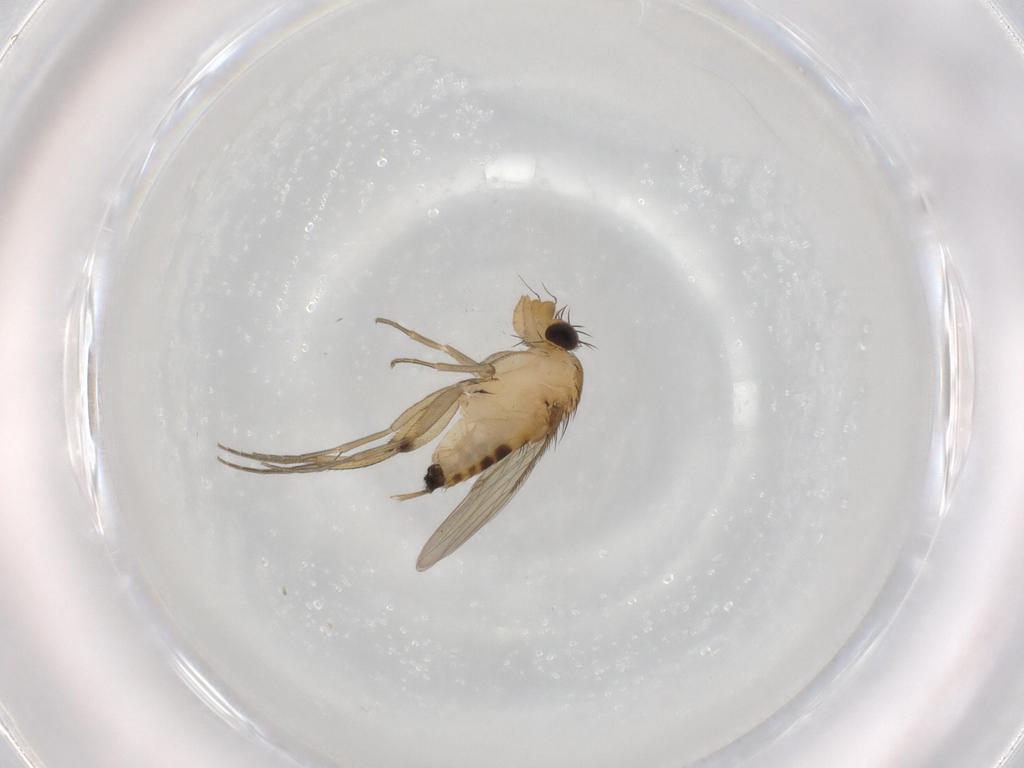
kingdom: Animalia
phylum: Arthropoda
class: Insecta
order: Diptera
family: Phoridae
